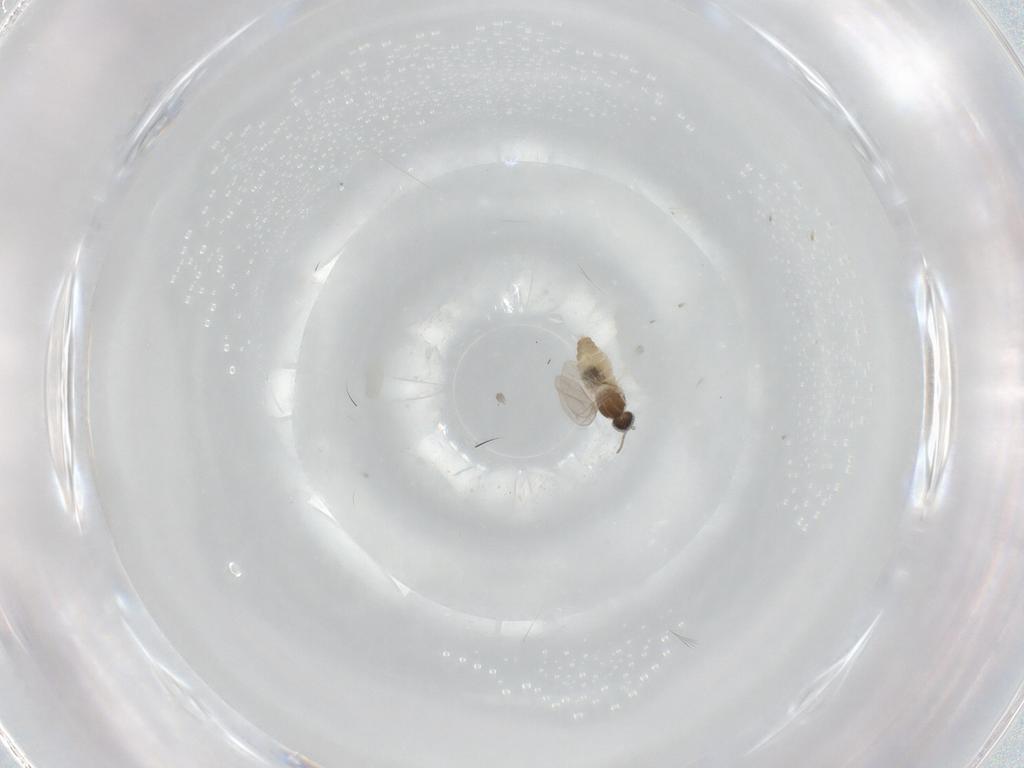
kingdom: Animalia
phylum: Arthropoda
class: Insecta
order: Diptera
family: Cecidomyiidae
